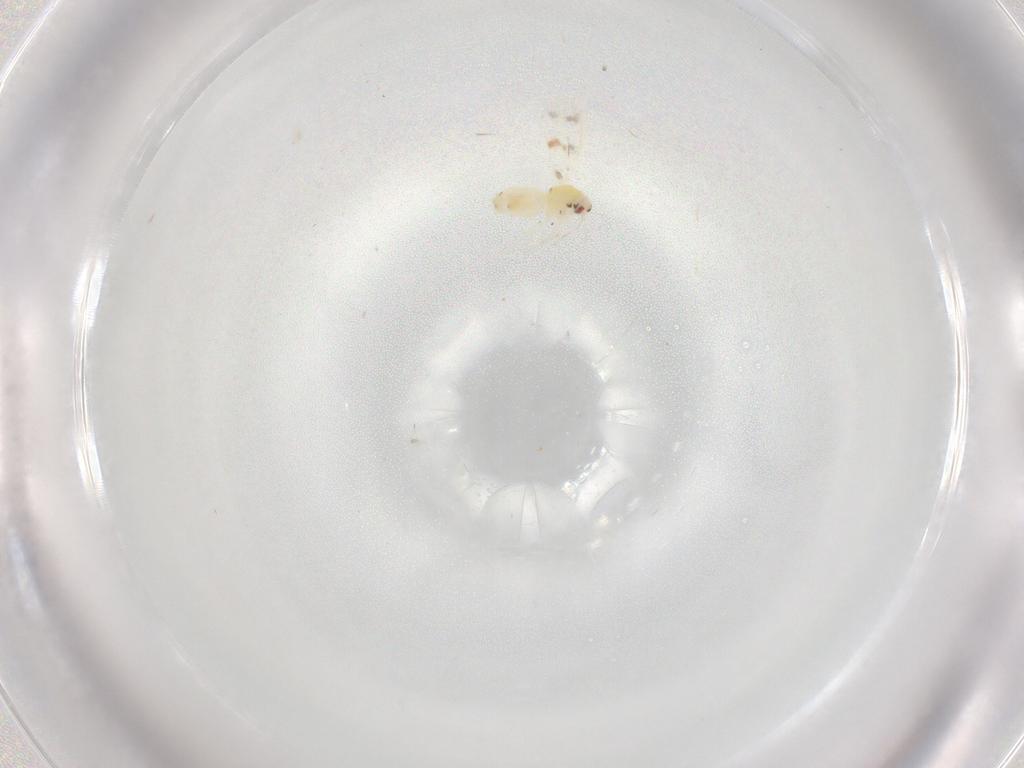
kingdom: Animalia
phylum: Arthropoda
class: Insecta
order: Hemiptera
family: Aleyrodidae
